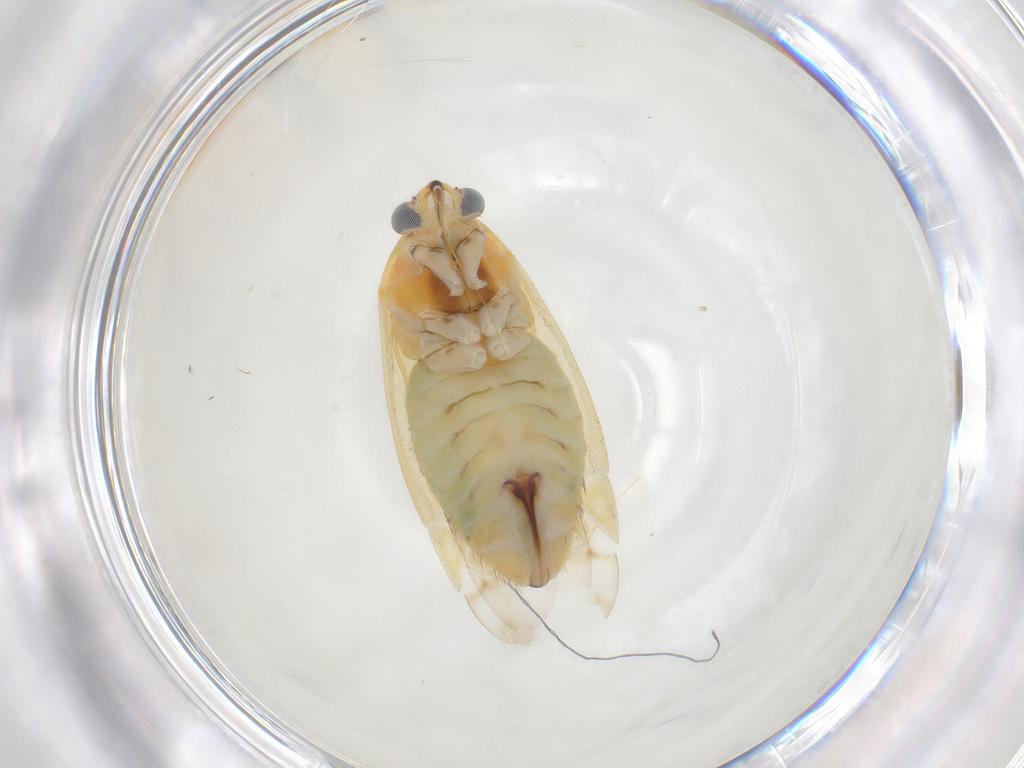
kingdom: Animalia
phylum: Arthropoda
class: Insecta
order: Hemiptera
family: Miridae
